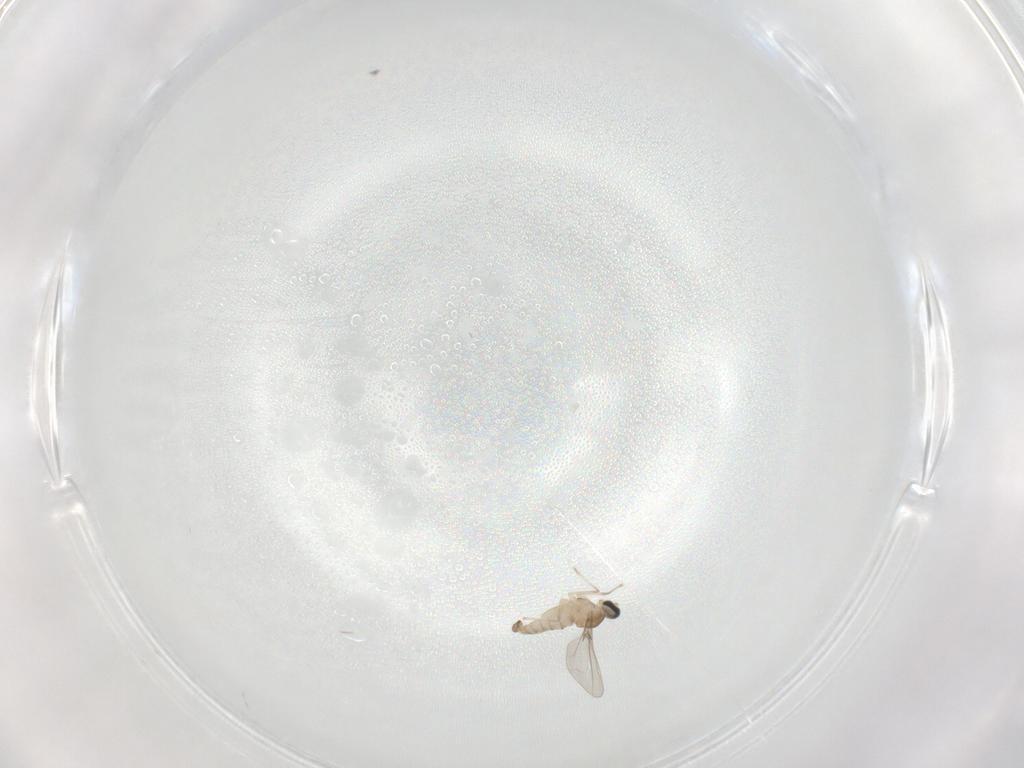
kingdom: Animalia
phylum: Arthropoda
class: Insecta
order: Diptera
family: Cecidomyiidae
